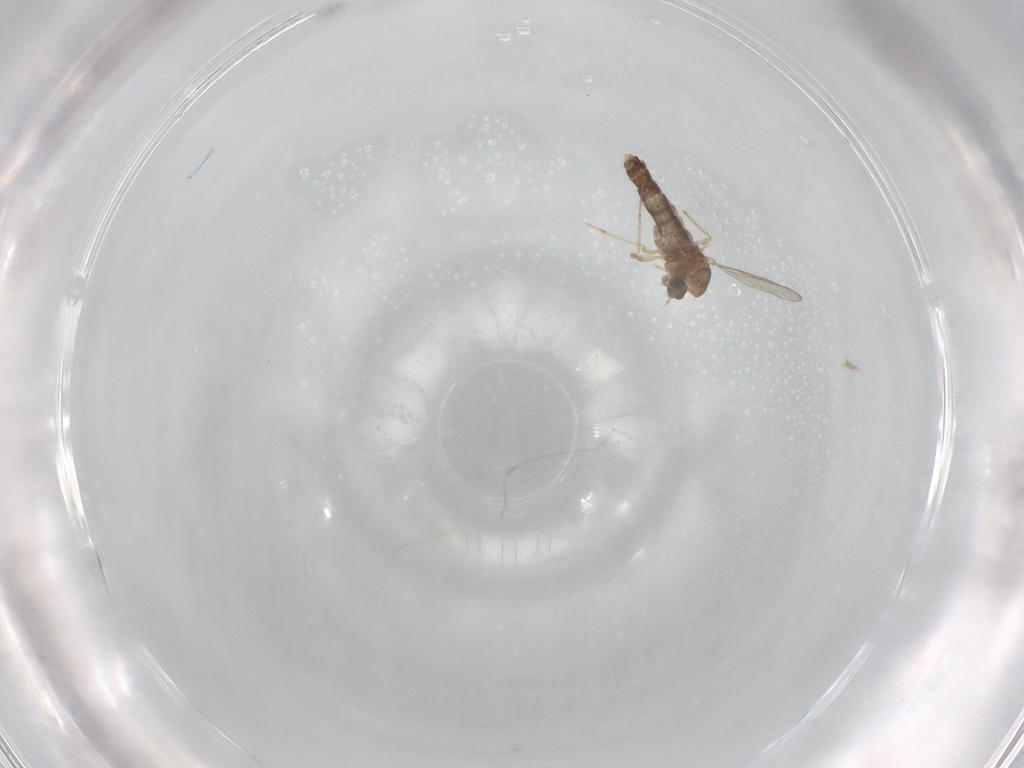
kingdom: Animalia
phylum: Arthropoda
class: Insecta
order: Diptera
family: Chironomidae
